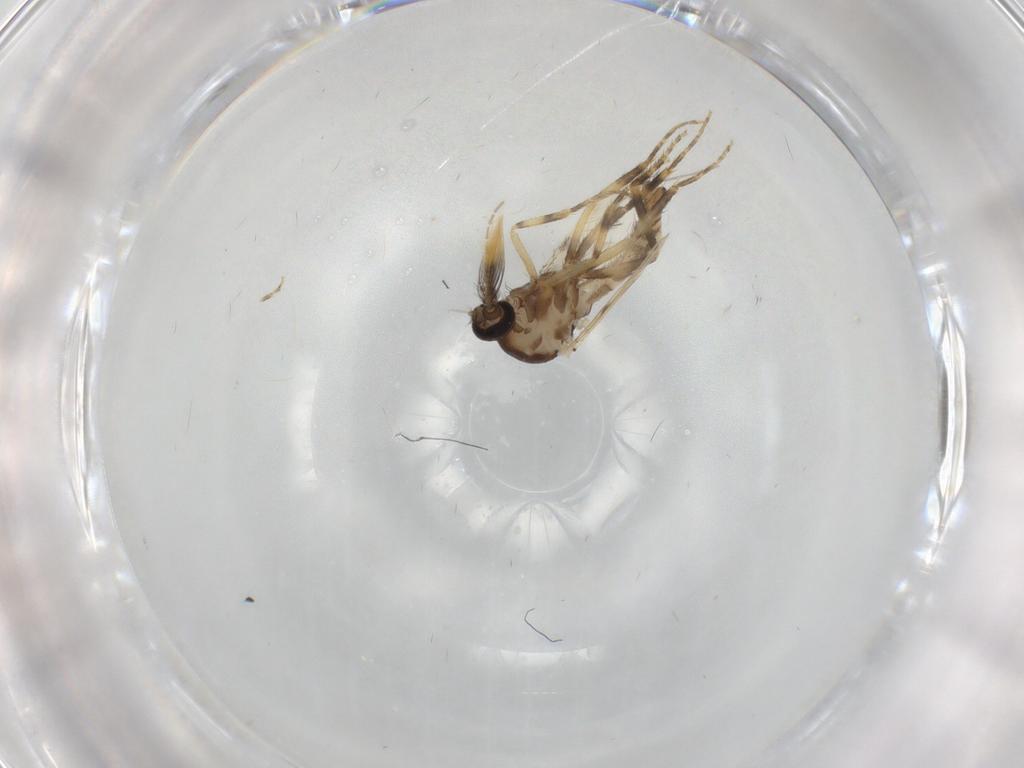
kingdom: Animalia
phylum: Arthropoda
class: Insecta
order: Diptera
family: Ceratopogonidae
